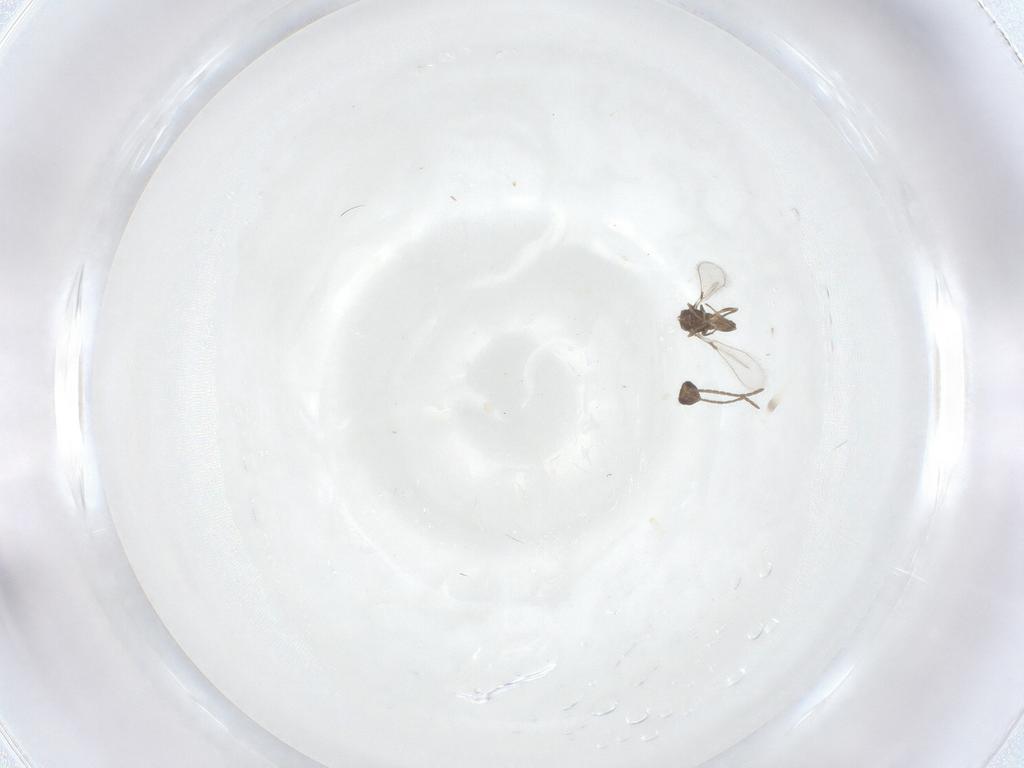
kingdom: Animalia
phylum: Arthropoda
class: Insecta
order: Hymenoptera
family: Mymaridae
